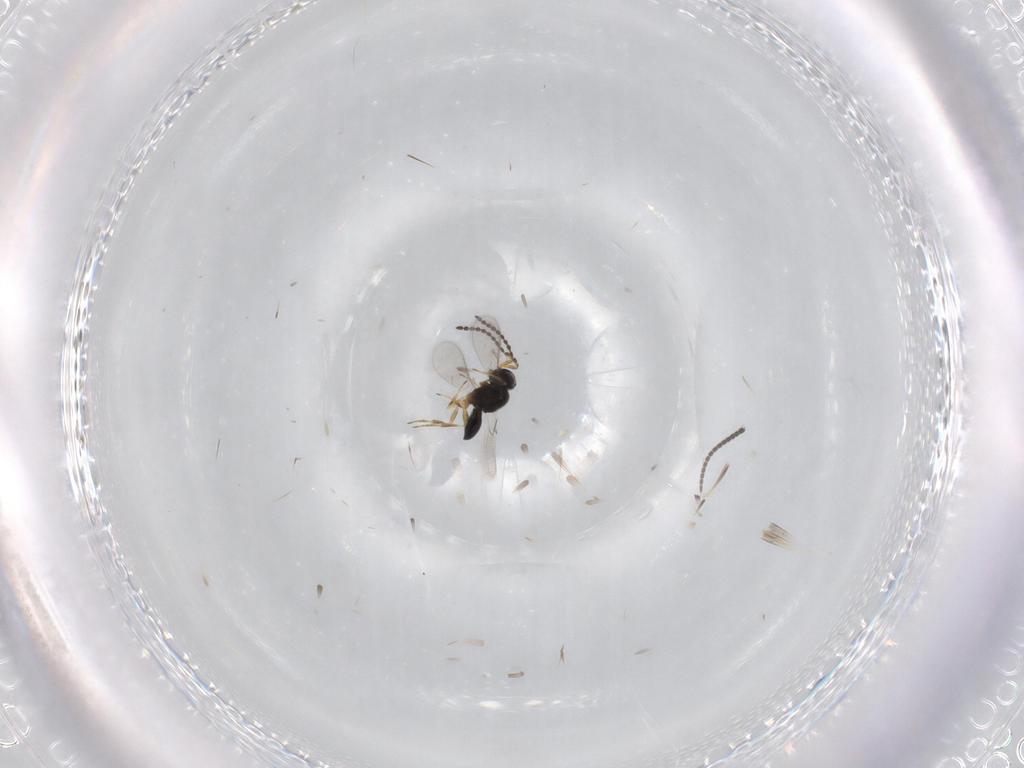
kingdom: Animalia
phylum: Arthropoda
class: Insecta
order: Hymenoptera
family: Scelionidae
